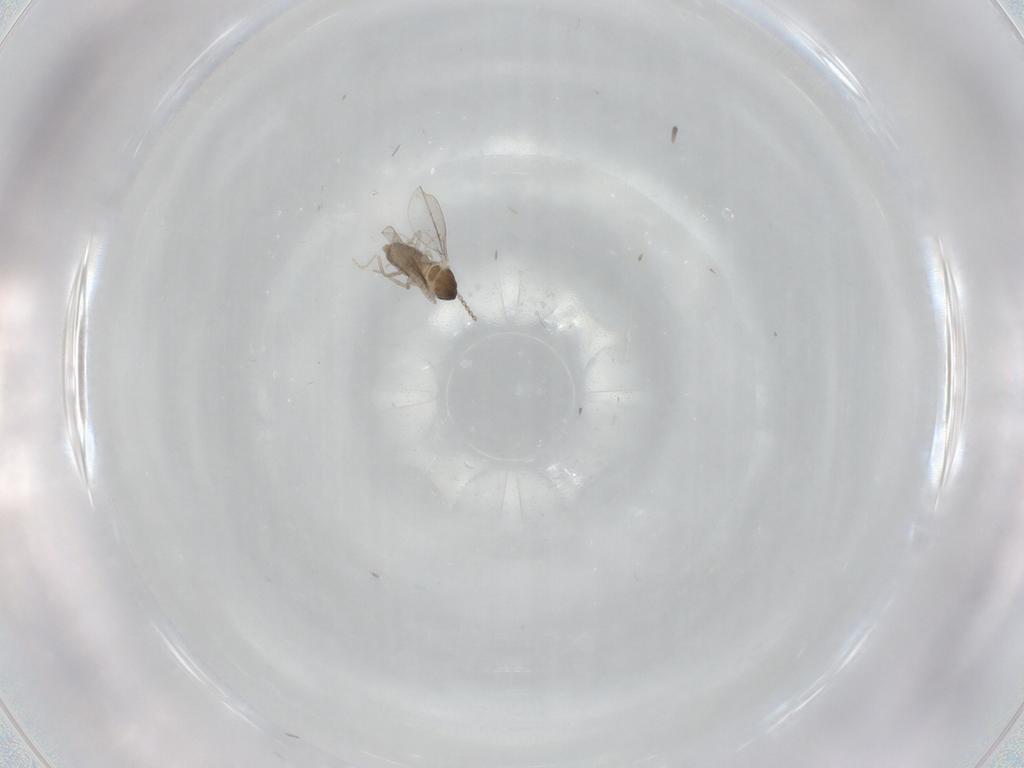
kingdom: Animalia
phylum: Arthropoda
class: Insecta
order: Diptera
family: Cecidomyiidae
